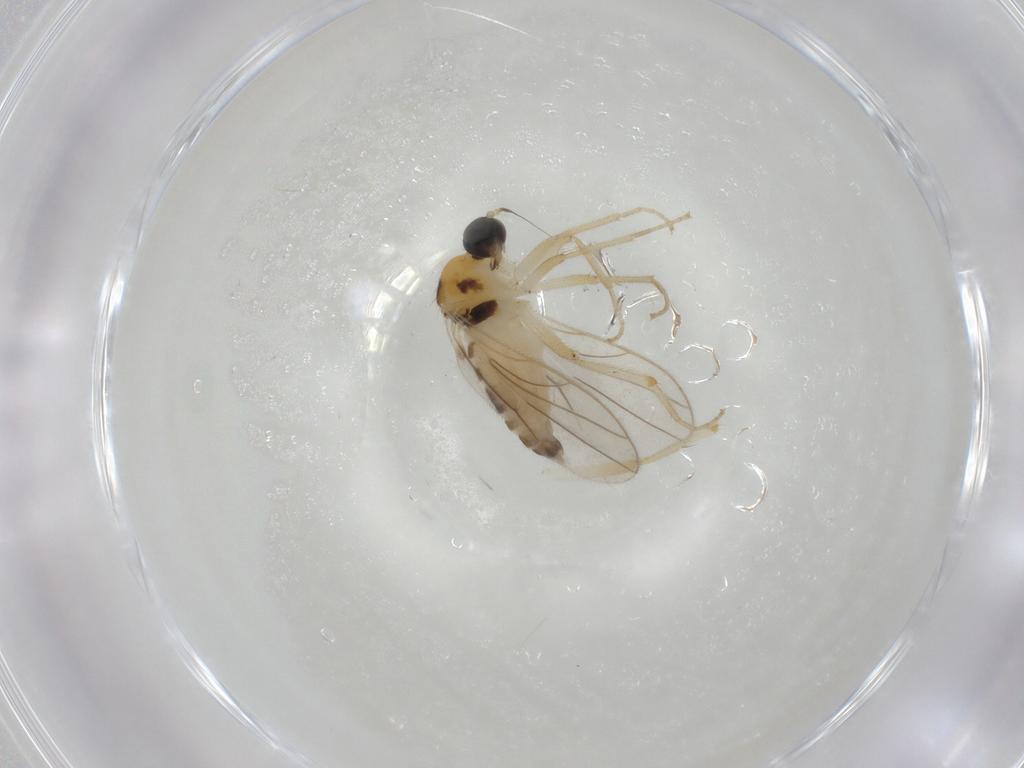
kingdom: Animalia
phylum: Arthropoda
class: Insecta
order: Diptera
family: Hybotidae
